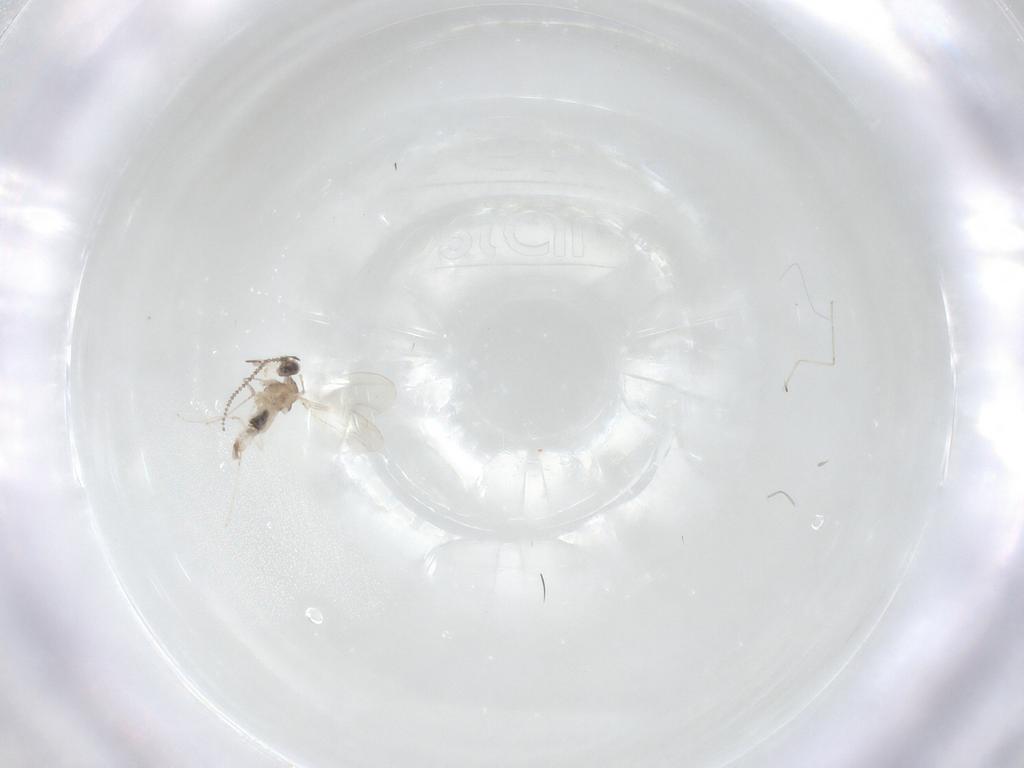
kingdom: Animalia
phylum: Arthropoda
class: Insecta
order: Diptera
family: Cecidomyiidae
